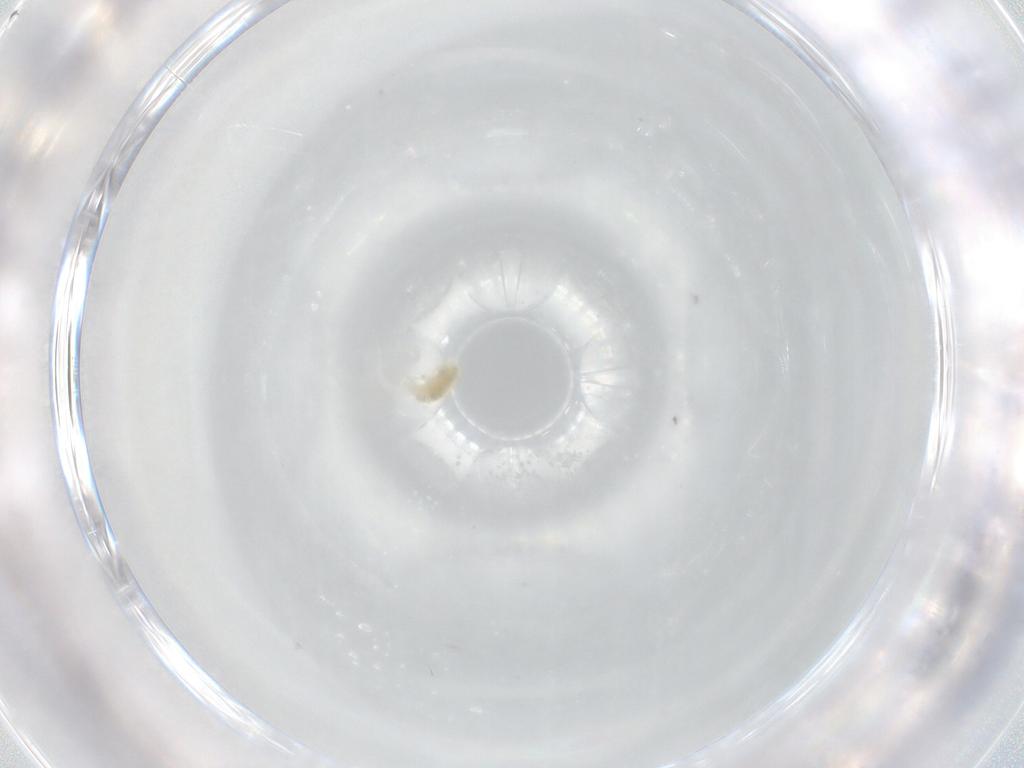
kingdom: Animalia
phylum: Arthropoda
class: Arachnida
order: Trombidiformes
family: Eupodidae
